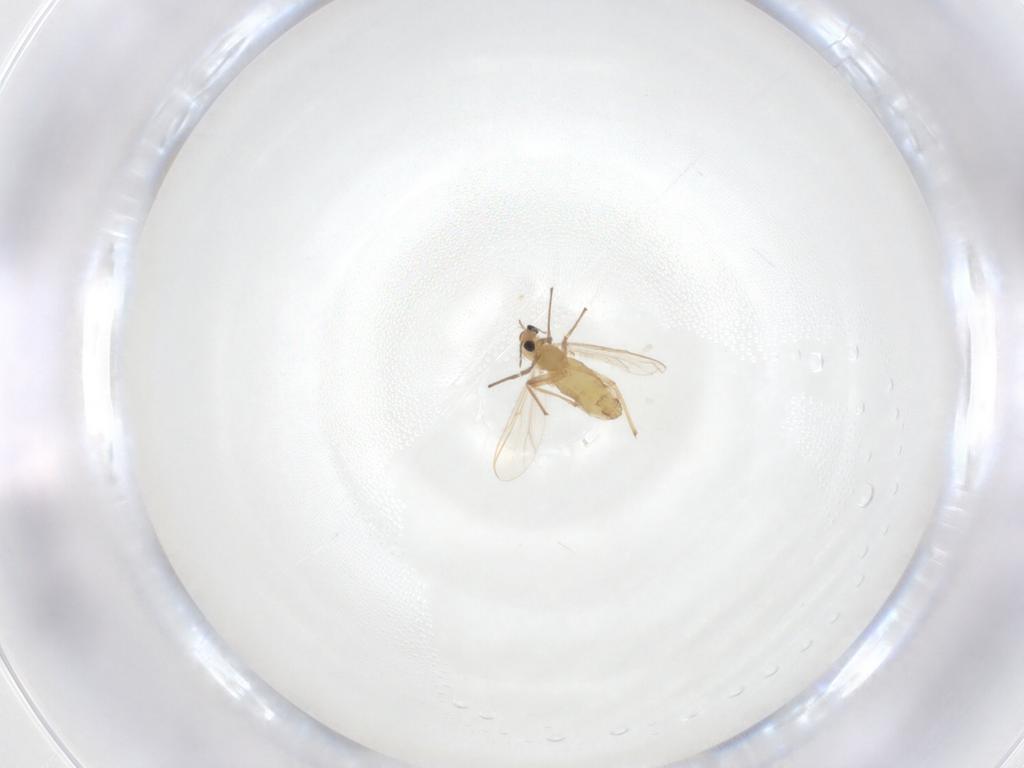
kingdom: Animalia
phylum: Arthropoda
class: Insecta
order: Diptera
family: Chironomidae
